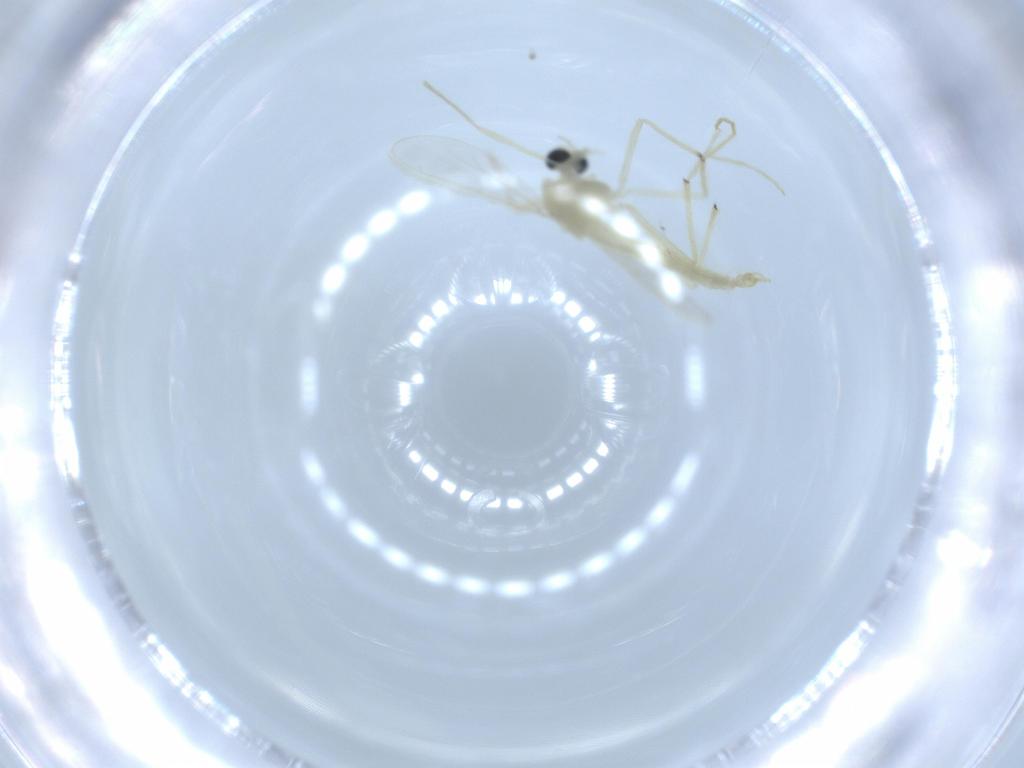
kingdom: Animalia
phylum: Arthropoda
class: Insecta
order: Diptera
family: Chironomidae
